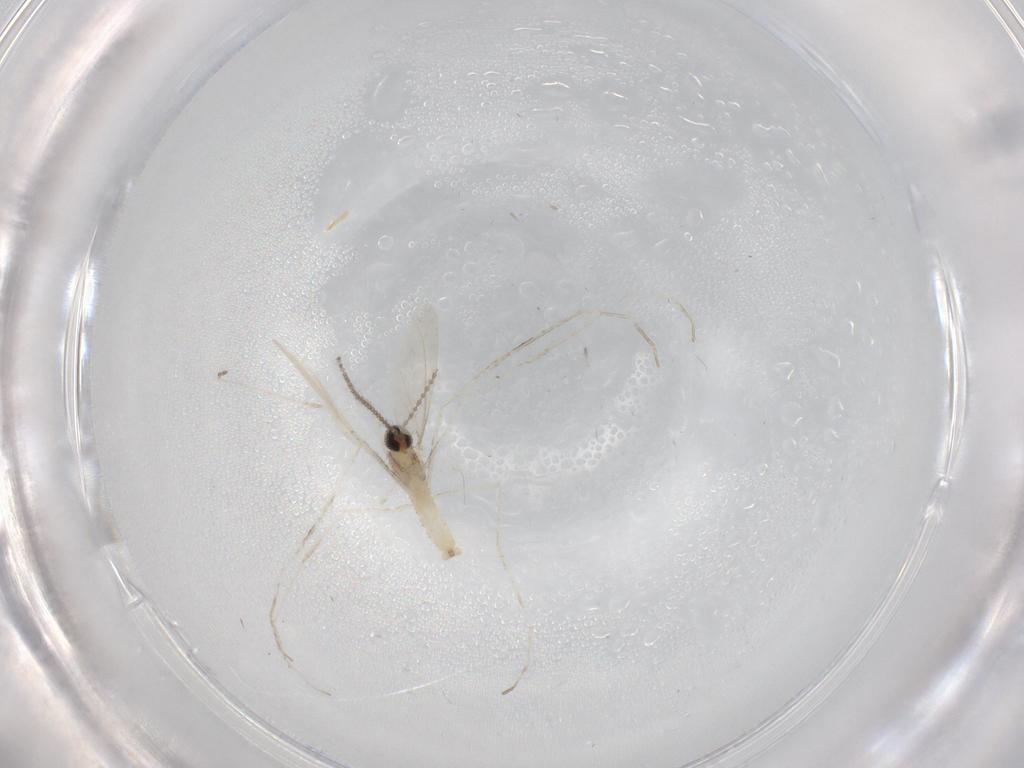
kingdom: Animalia
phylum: Arthropoda
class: Insecta
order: Diptera
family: Cecidomyiidae
